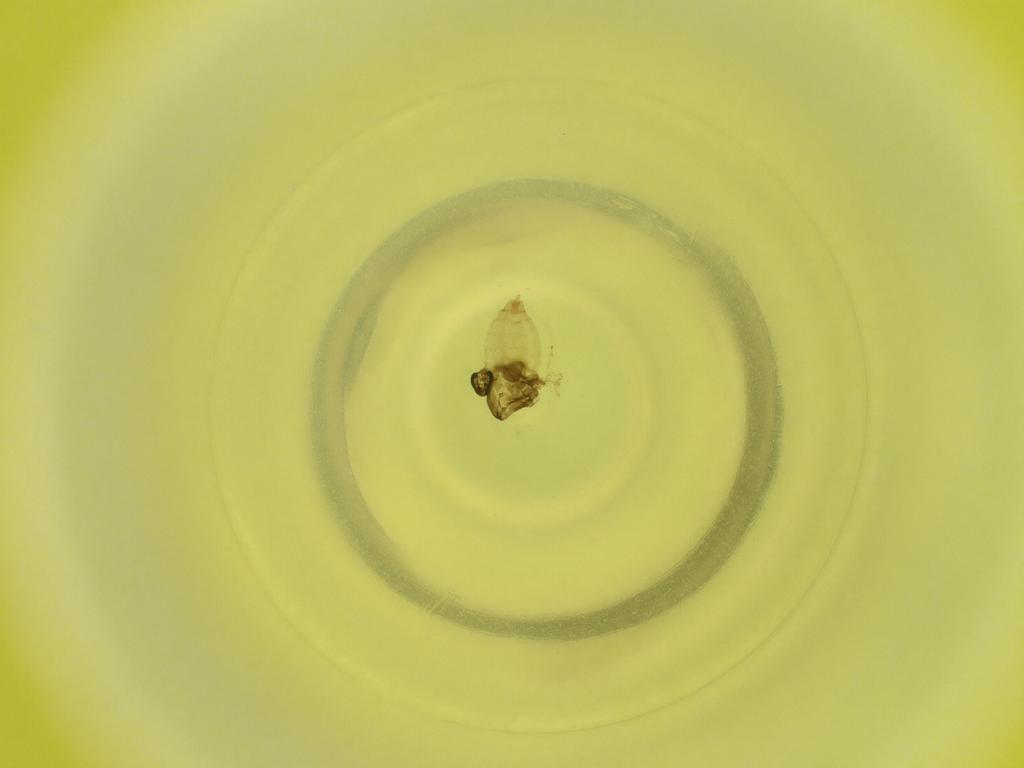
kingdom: Animalia
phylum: Arthropoda
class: Insecta
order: Diptera
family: Cecidomyiidae
